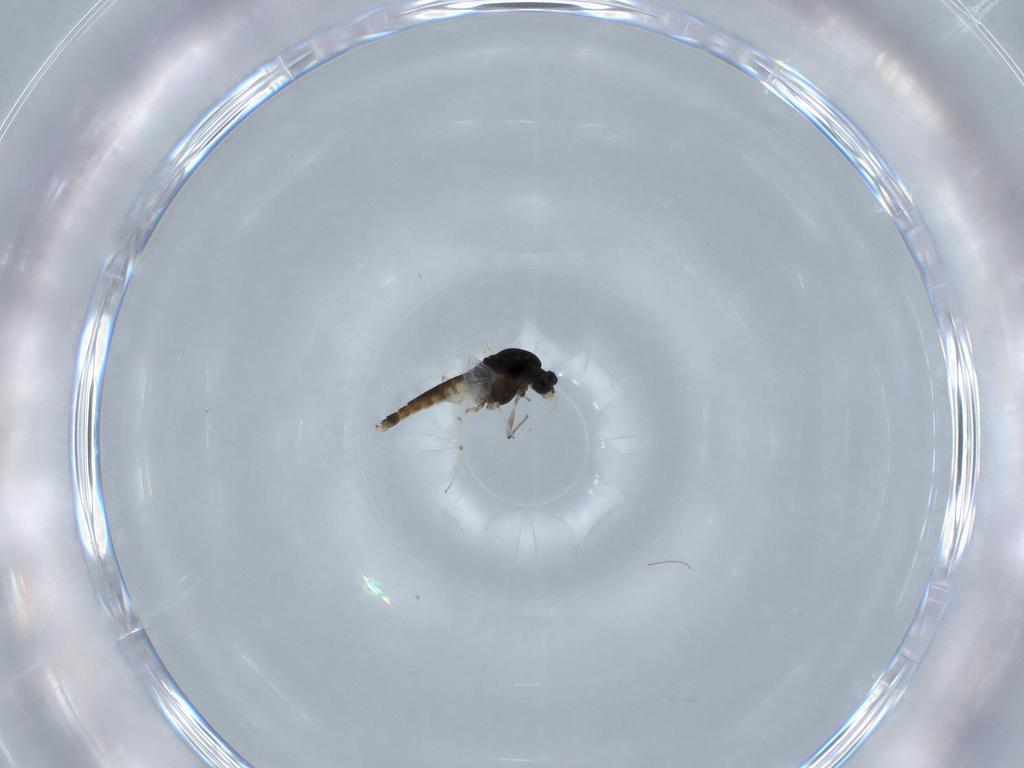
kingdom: Animalia
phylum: Arthropoda
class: Insecta
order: Diptera
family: Chironomidae
